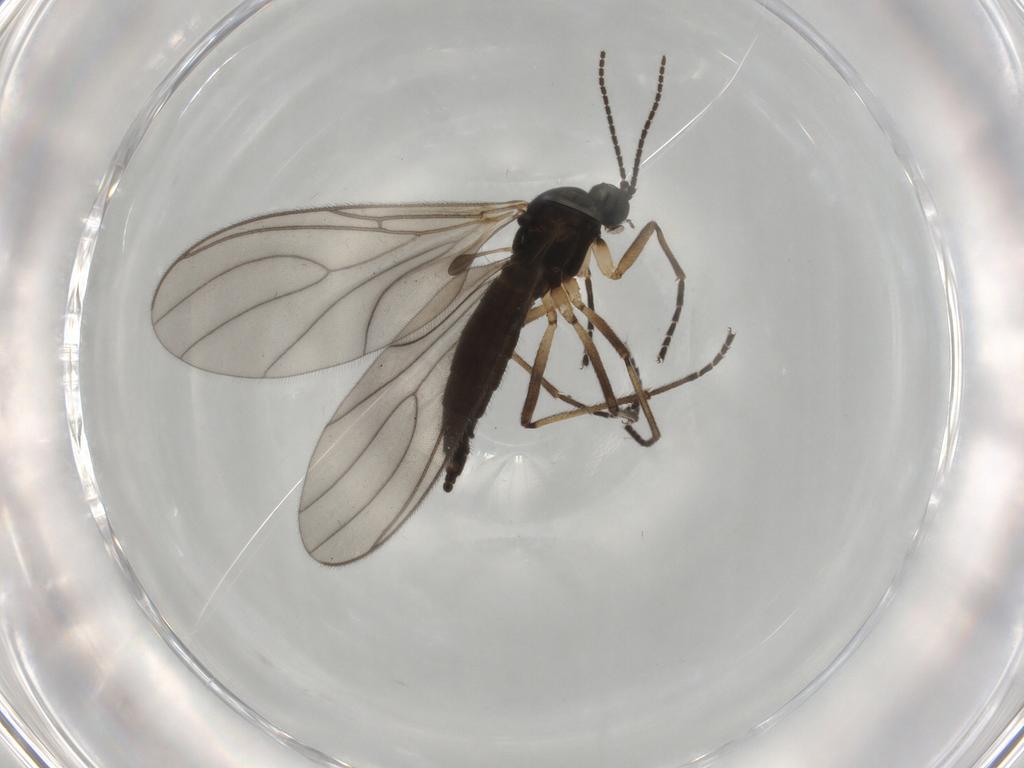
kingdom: Animalia
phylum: Arthropoda
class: Insecta
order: Diptera
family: Sciaridae
